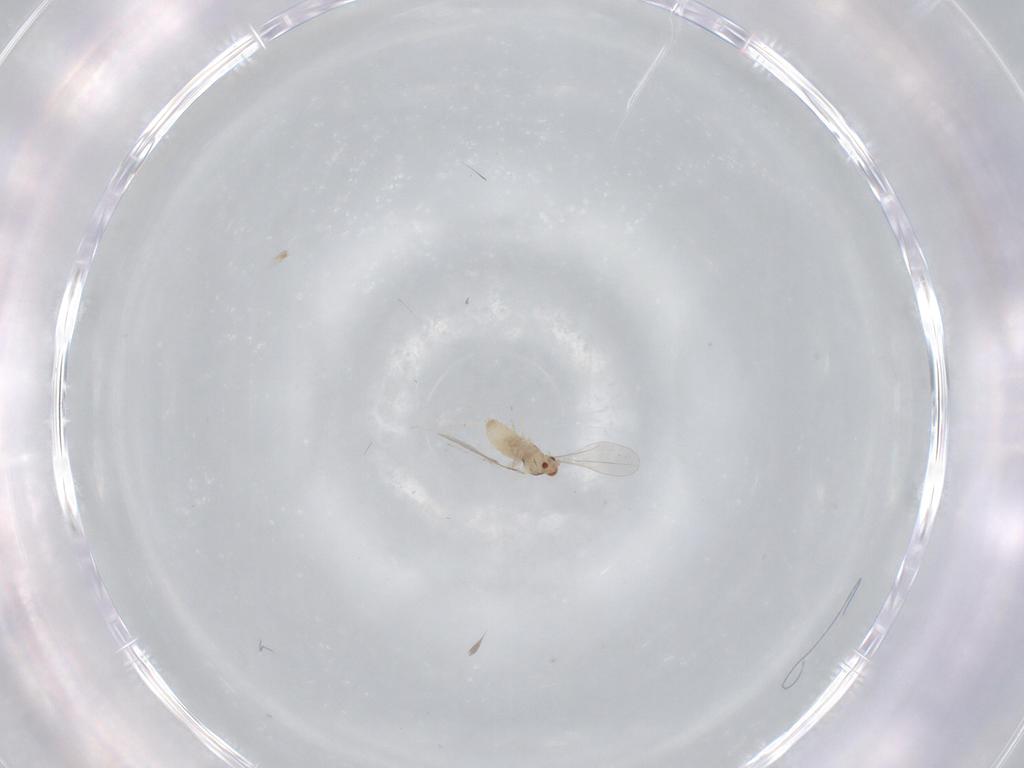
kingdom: Animalia
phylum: Arthropoda
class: Insecta
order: Diptera
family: Cecidomyiidae
